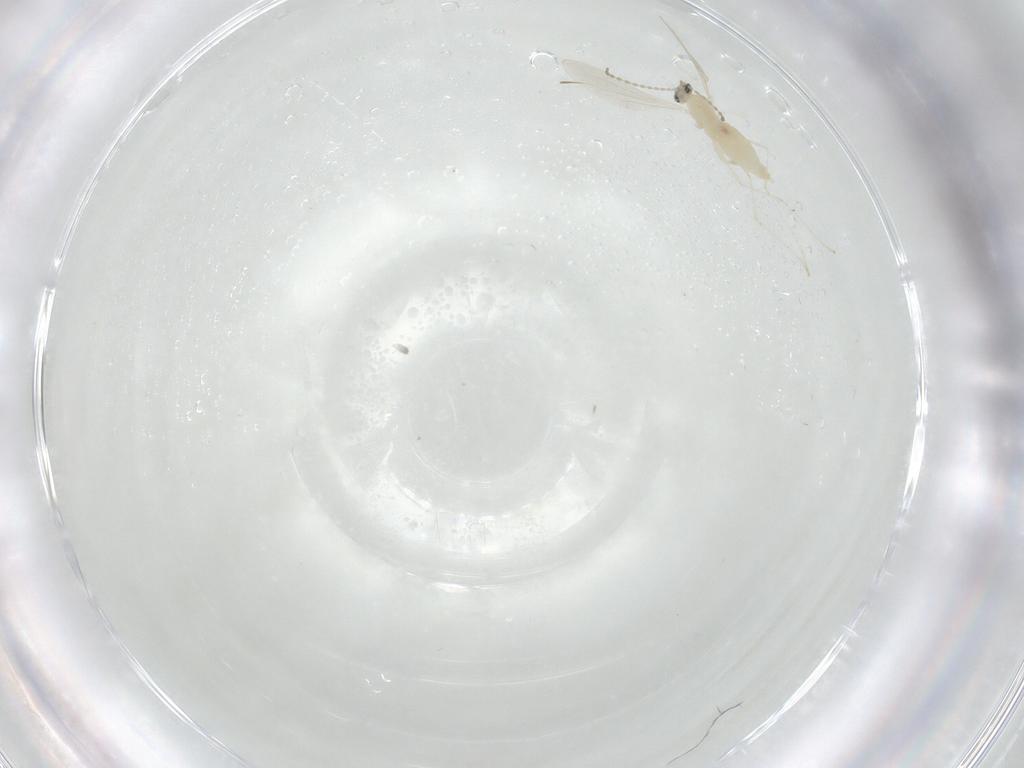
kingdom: Animalia
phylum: Arthropoda
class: Insecta
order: Diptera
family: Cecidomyiidae
